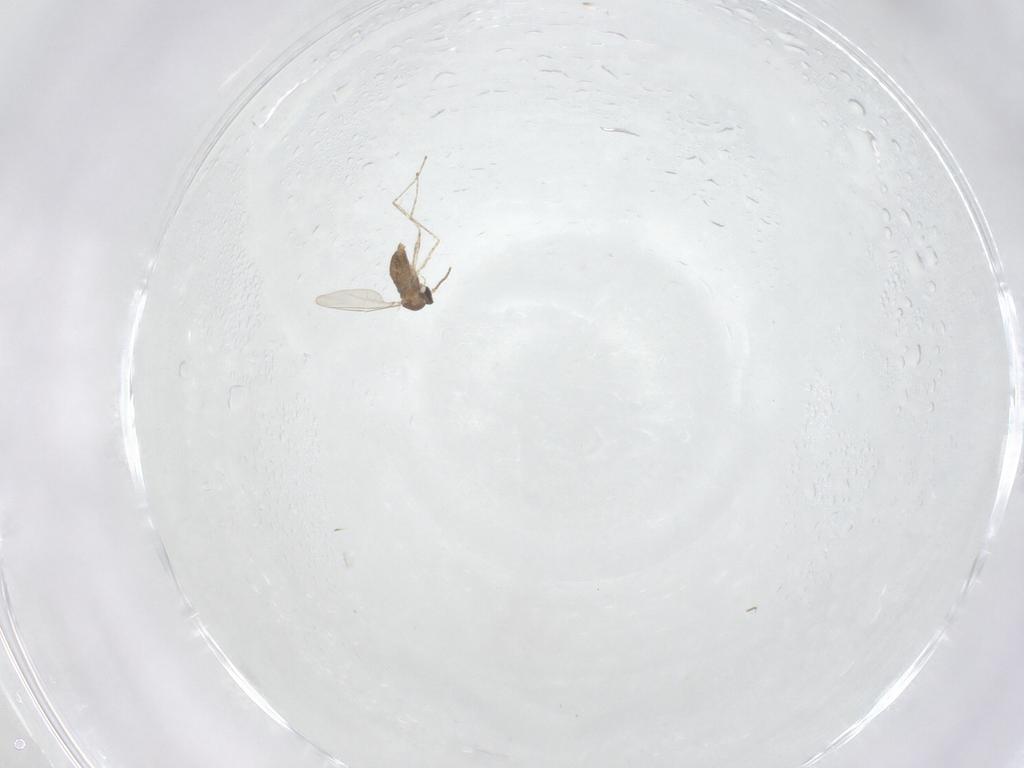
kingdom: Animalia
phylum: Arthropoda
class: Insecta
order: Diptera
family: Cecidomyiidae
